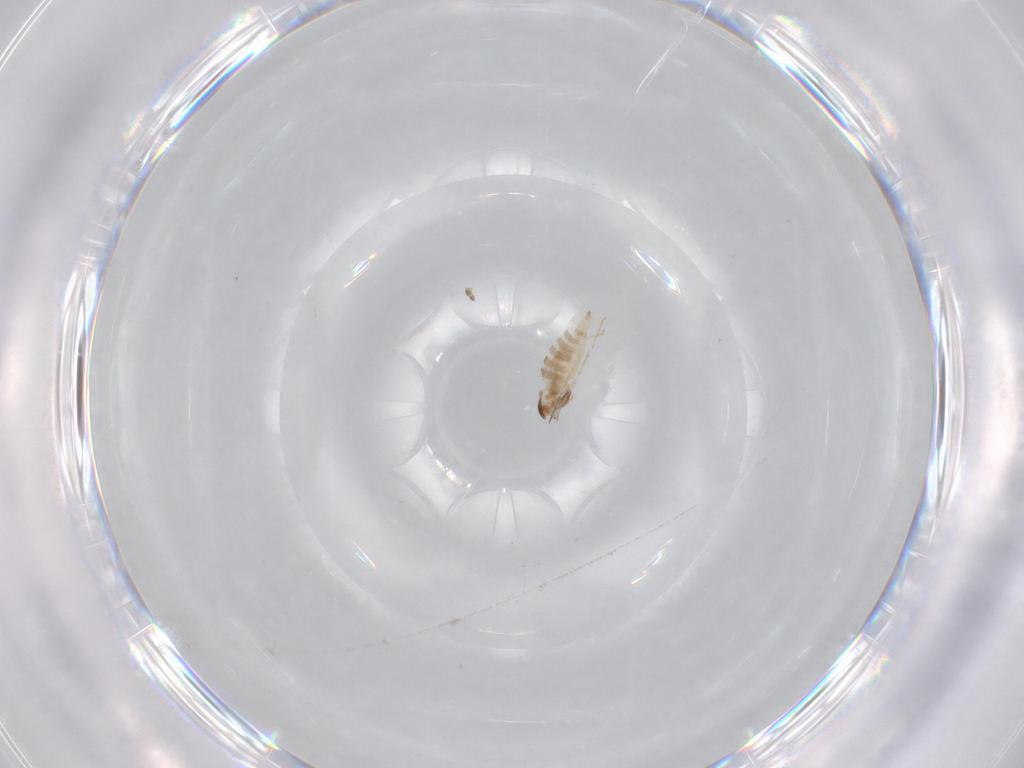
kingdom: Animalia
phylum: Arthropoda
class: Insecta
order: Diptera
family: Cecidomyiidae
